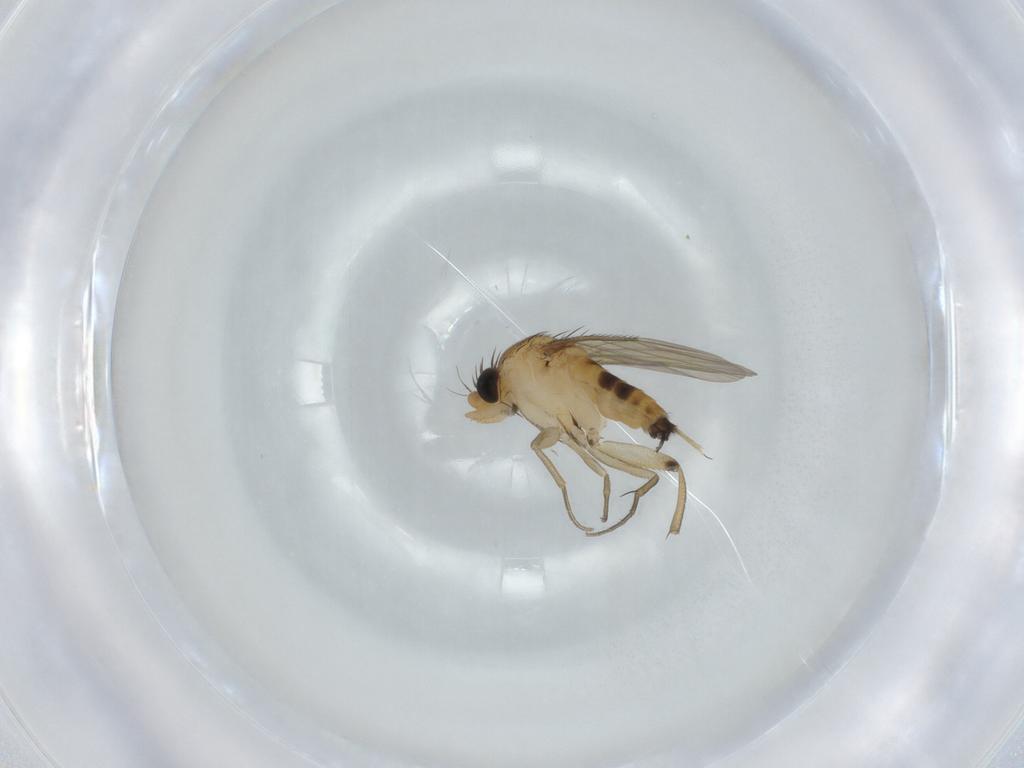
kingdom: Animalia
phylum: Arthropoda
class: Insecta
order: Diptera
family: Phoridae
